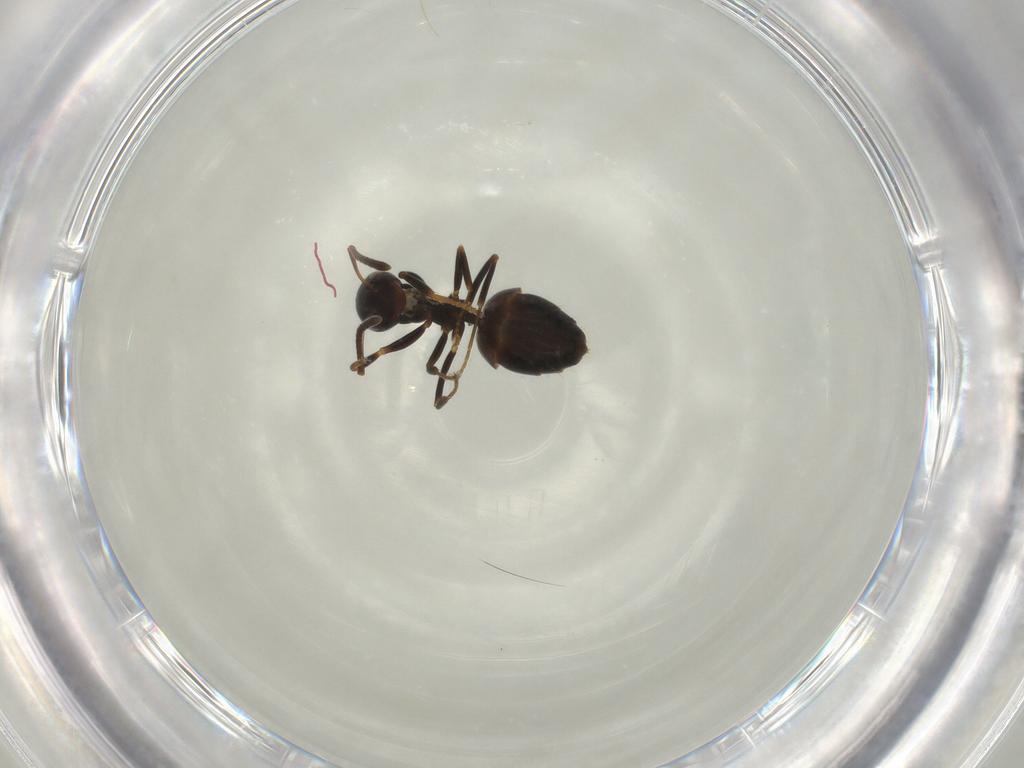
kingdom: Animalia
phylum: Arthropoda
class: Insecta
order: Hymenoptera
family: Formicidae
